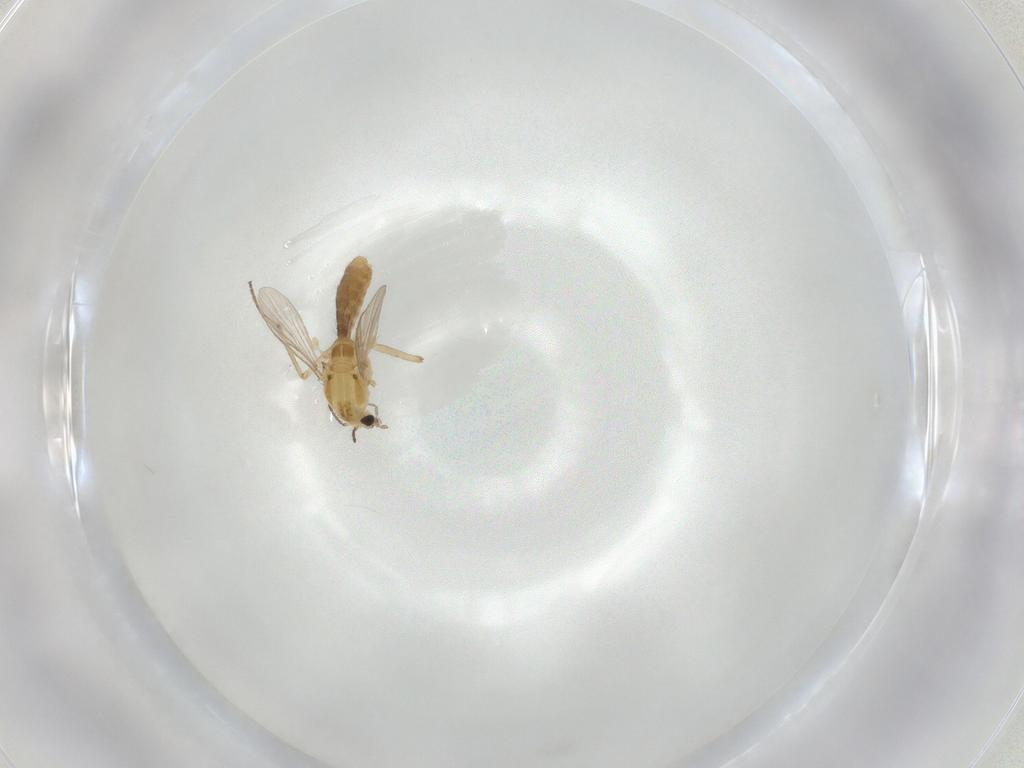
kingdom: Animalia
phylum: Arthropoda
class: Insecta
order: Diptera
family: Chironomidae
